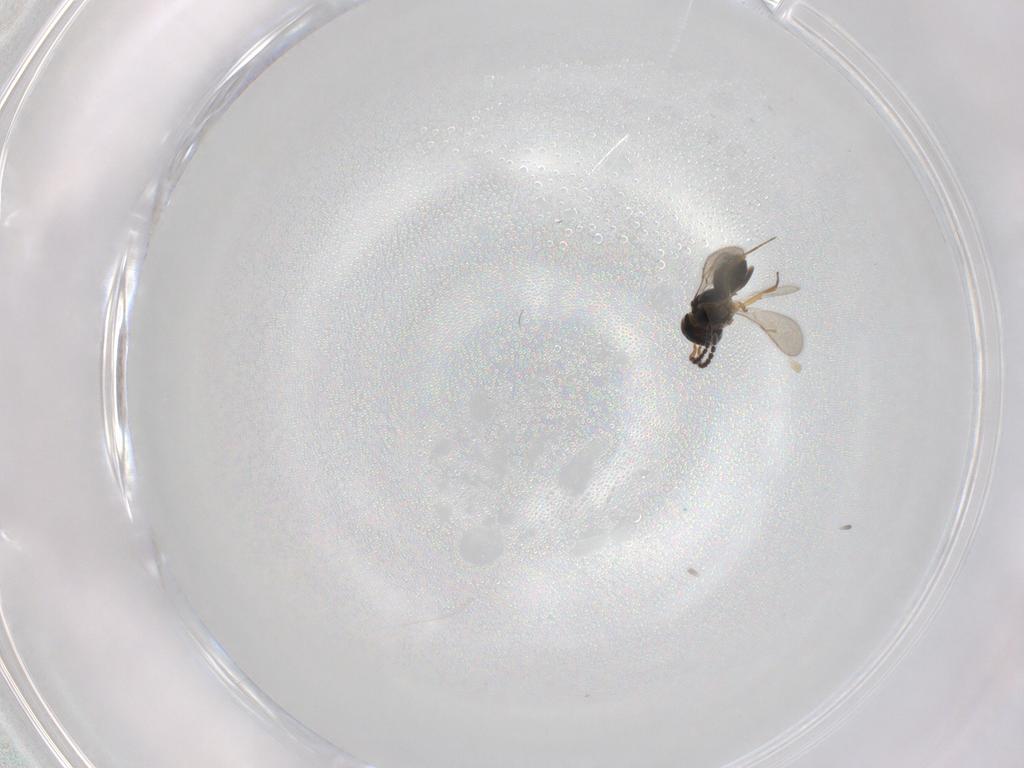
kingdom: Animalia
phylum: Arthropoda
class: Insecta
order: Hymenoptera
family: Scelionidae
